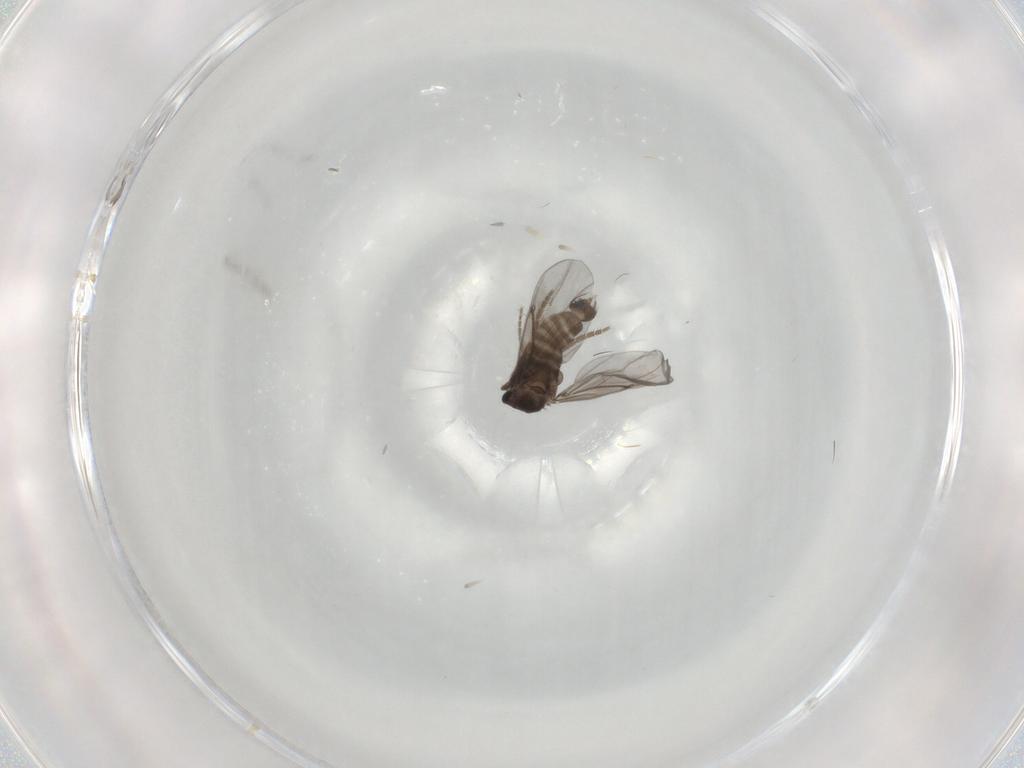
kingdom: Animalia
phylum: Arthropoda
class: Insecta
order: Diptera
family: Phoridae
